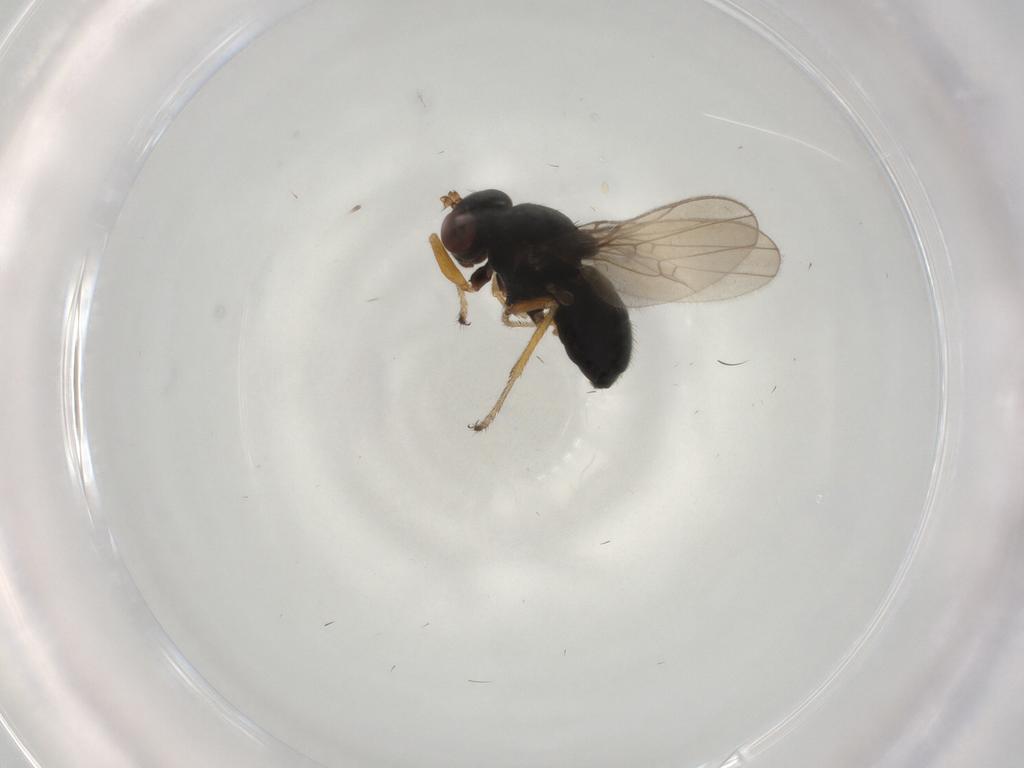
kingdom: Animalia
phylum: Arthropoda
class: Insecta
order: Diptera
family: Ephydridae
